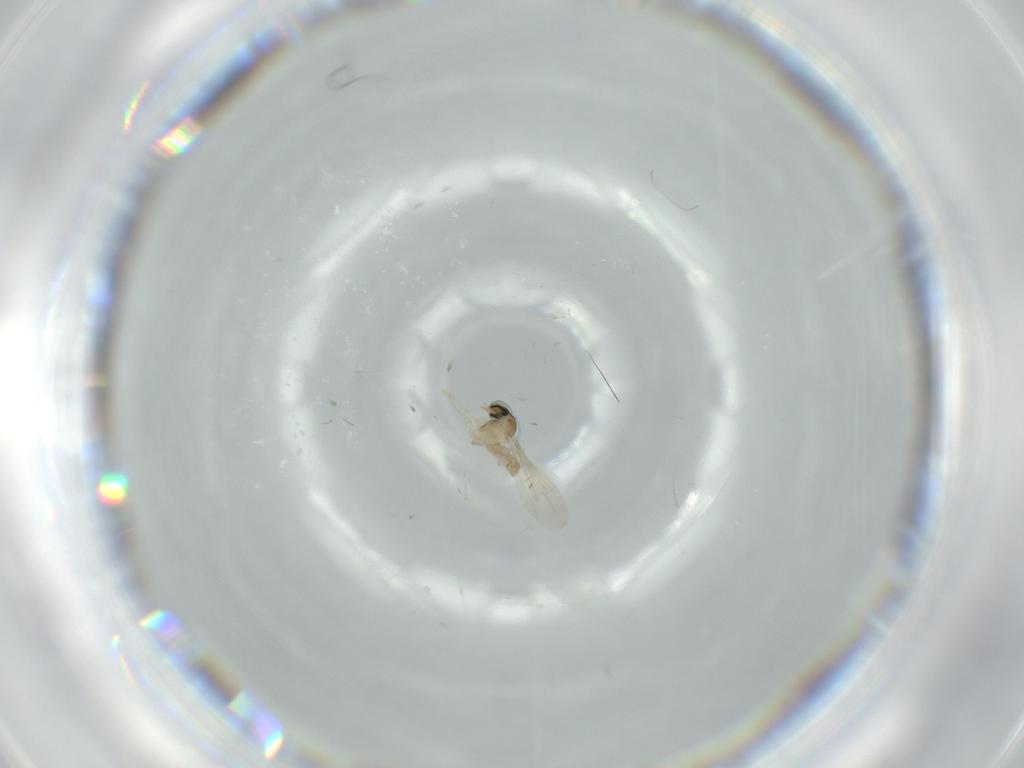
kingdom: Animalia
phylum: Arthropoda
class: Insecta
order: Diptera
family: Cecidomyiidae
